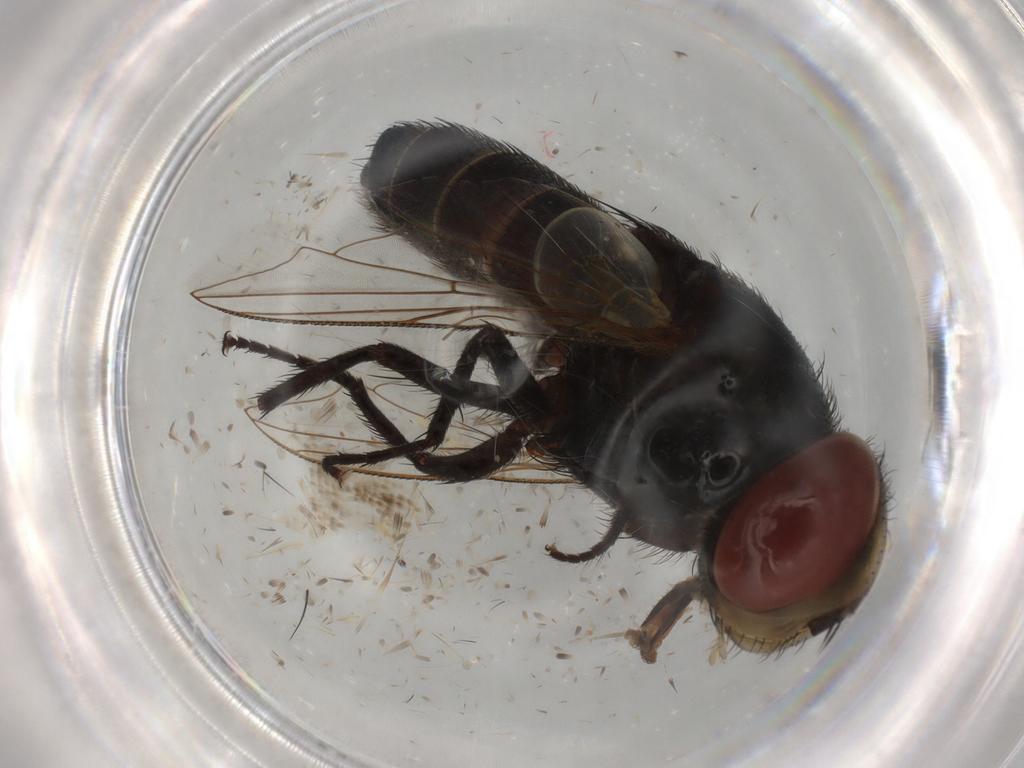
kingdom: Animalia
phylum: Arthropoda
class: Insecta
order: Diptera
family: Sarcophagidae
